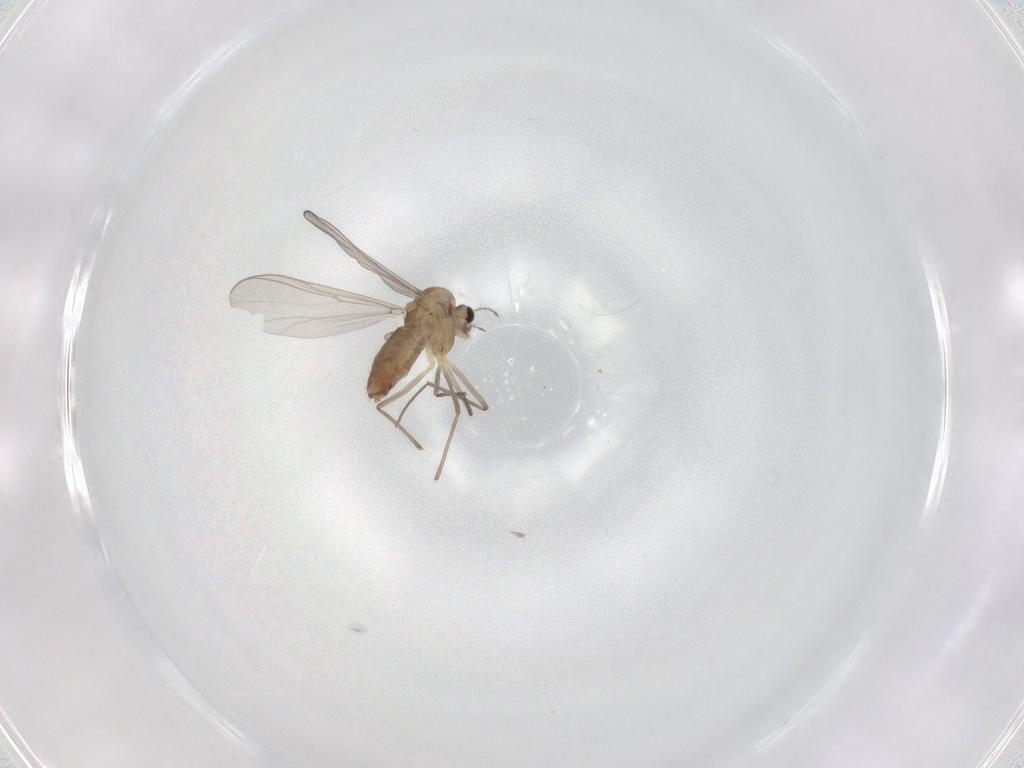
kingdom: Animalia
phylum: Arthropoda
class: Insecta
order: Diptera
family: Chironomidae
